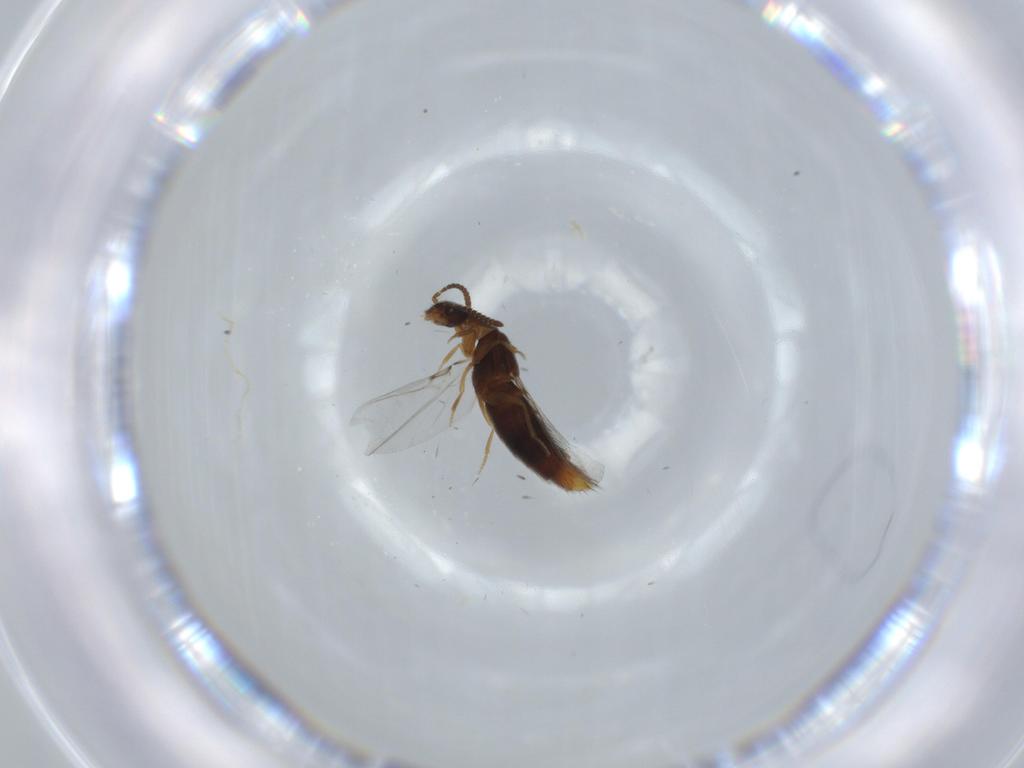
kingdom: Animalia
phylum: Arthropoda
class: Insecta
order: Coleoptera
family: Staphylinidae
